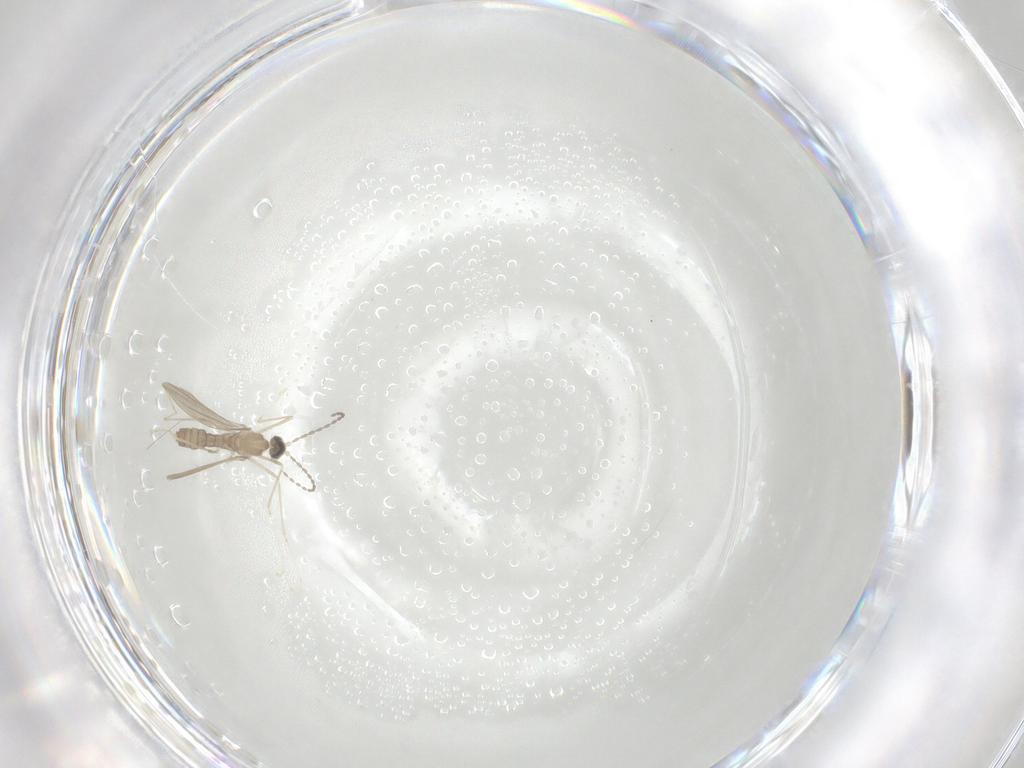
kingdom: Animalia
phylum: Arthropoda
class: Insecta
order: Diptera
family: Cecidomyiidae
